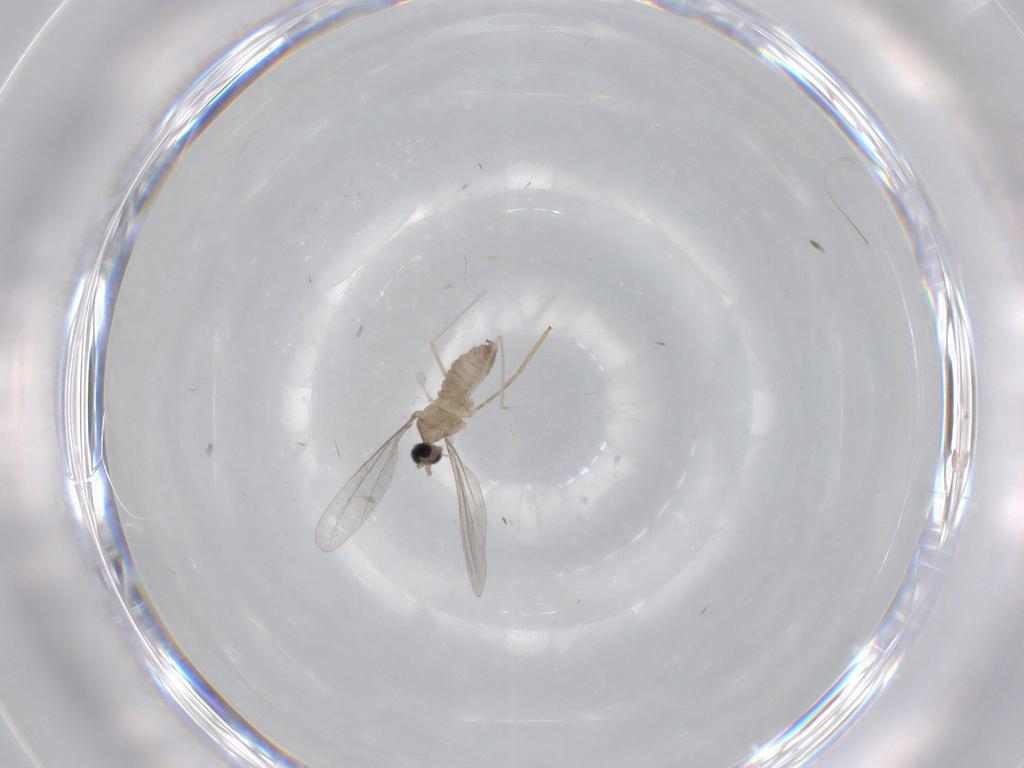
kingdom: Animalia
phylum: Arthropoda
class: Insecta
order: Diptera
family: Cecidomyiidae
